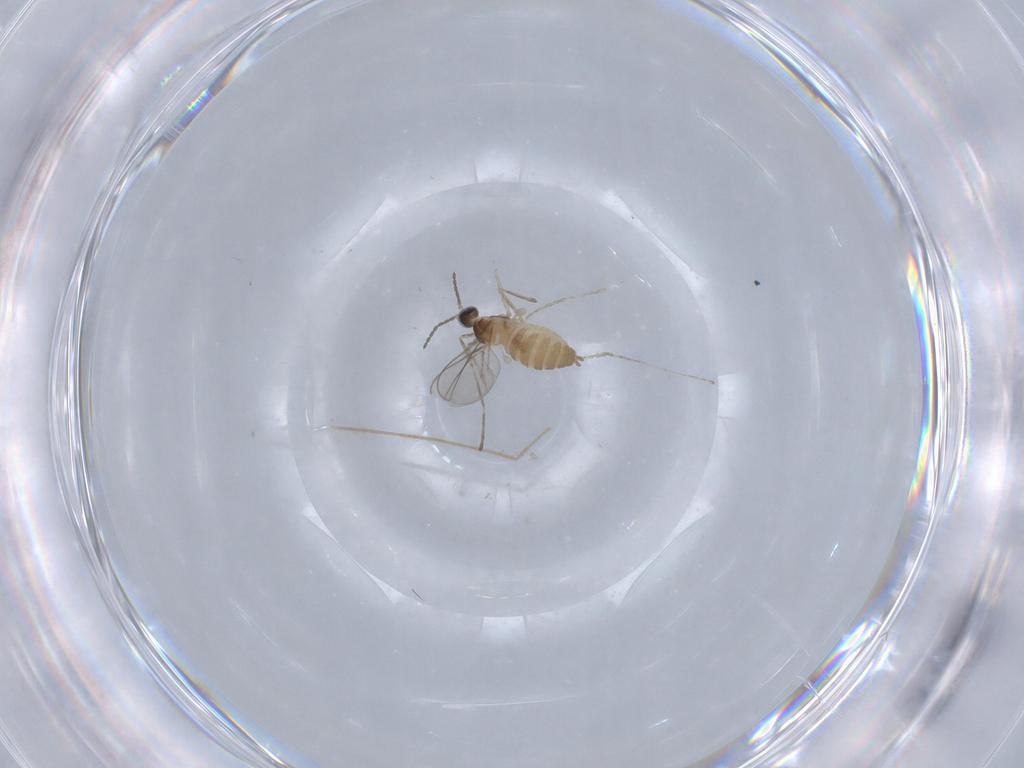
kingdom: Animalia
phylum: Arthropoda
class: Insecta
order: Diptera
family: Cecidomyiidae
